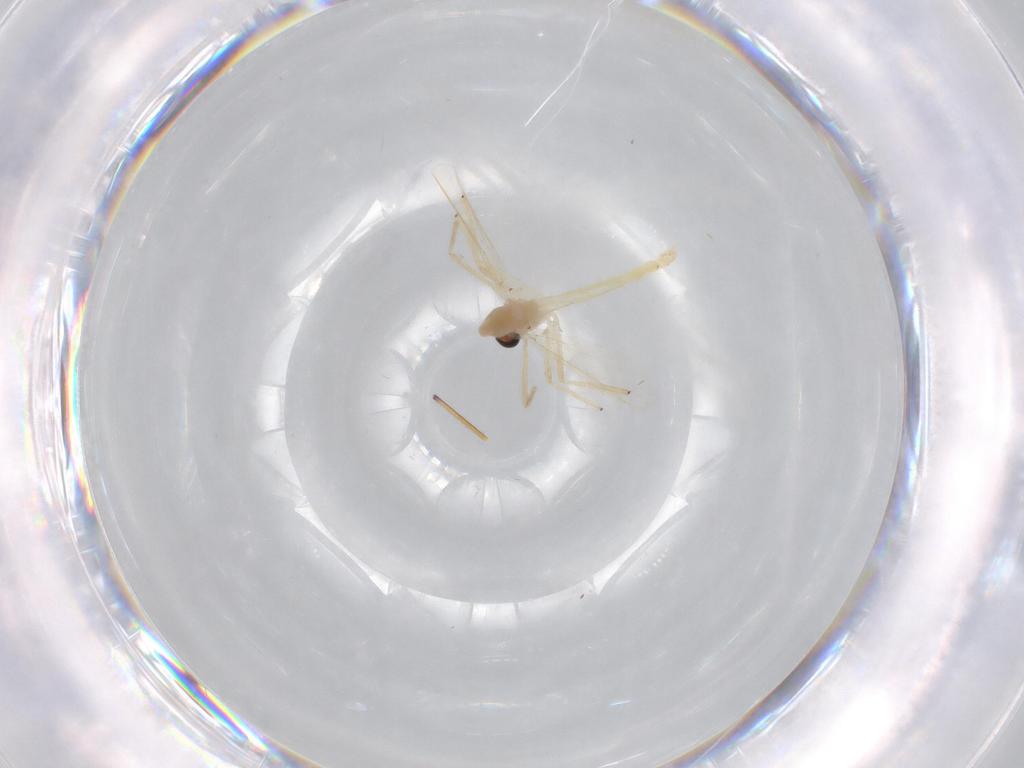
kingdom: Animalia
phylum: Arthropoda
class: Insecta
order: Diptera
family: Chironomidae
